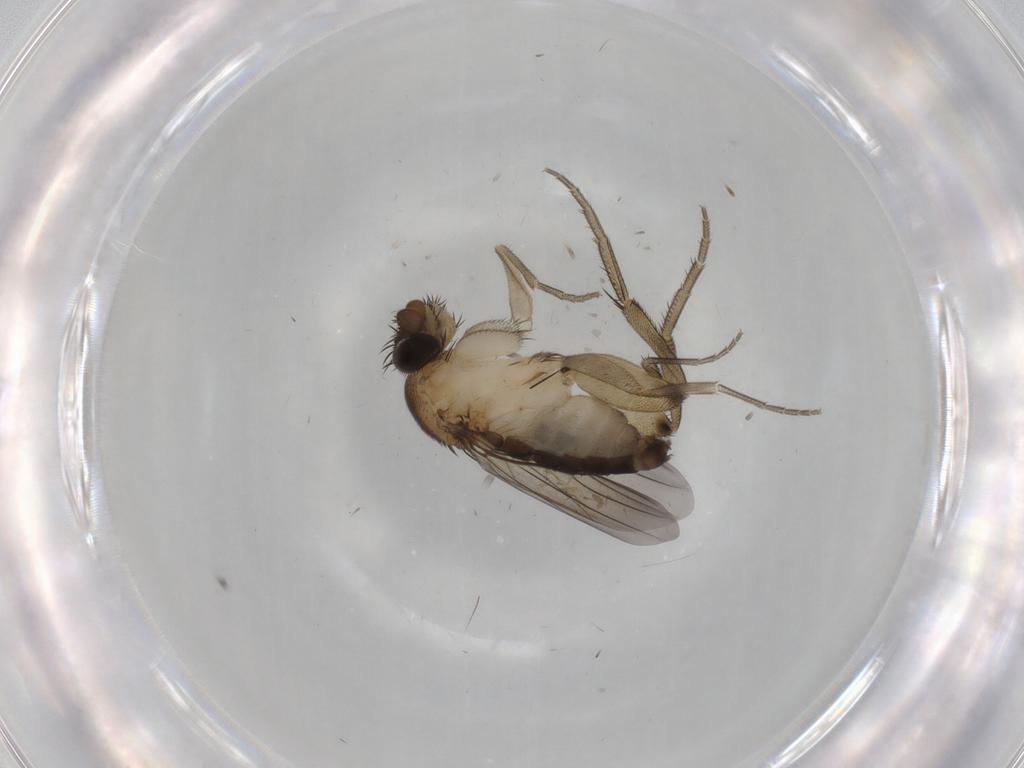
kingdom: Animalia
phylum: Arthropoda
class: Insecta
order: Diptera
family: Phoridae
